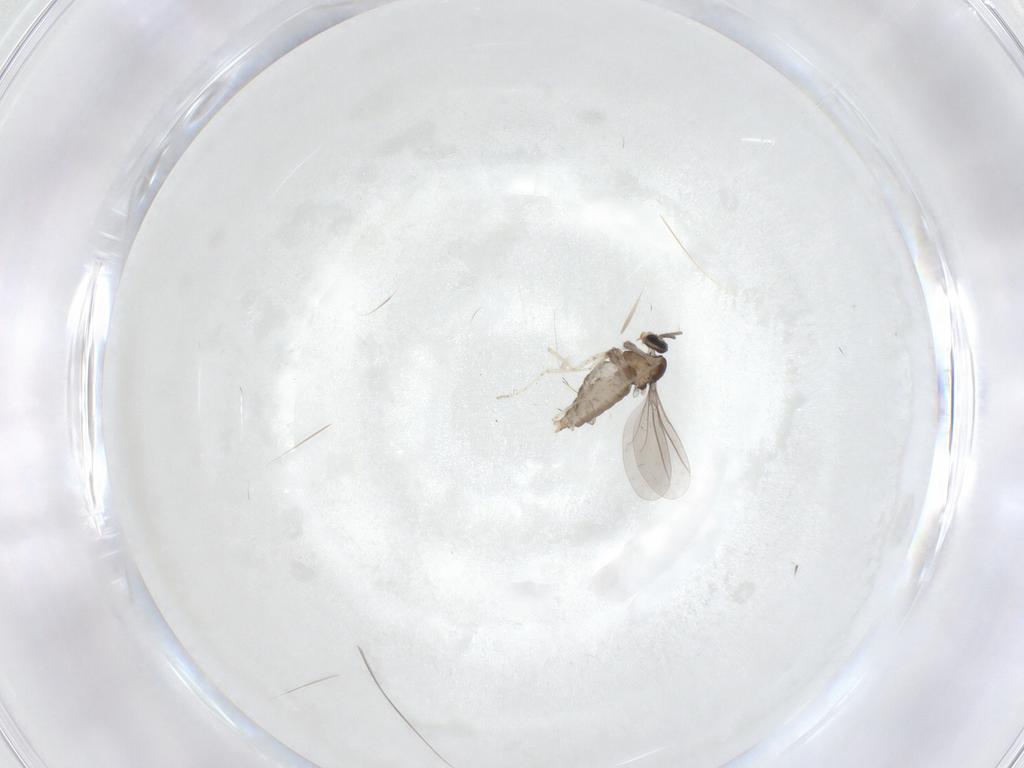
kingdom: Animalia
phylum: Arthropoda
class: Insecta
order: Diptera
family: Cecidomyiidae
